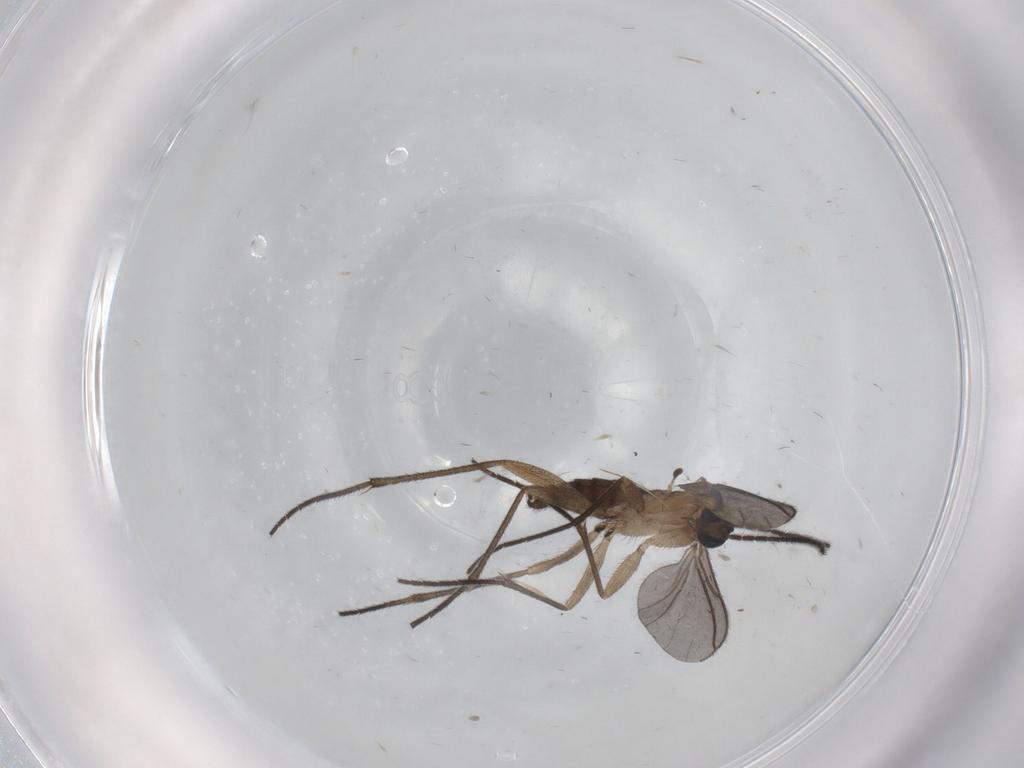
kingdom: Animalia
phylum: Arthropoda
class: Insecta
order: Diptera
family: Sciaridae
